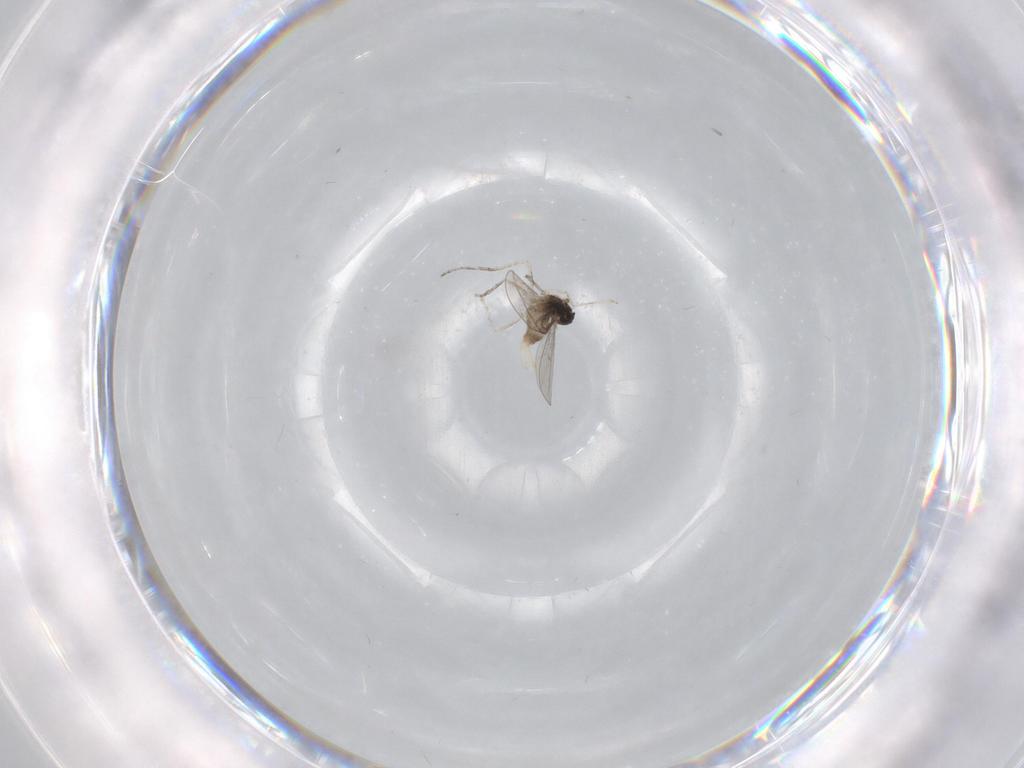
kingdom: Animalia
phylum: Arthropoda
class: Insecta
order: Diptera
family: Cecidomyiidae
